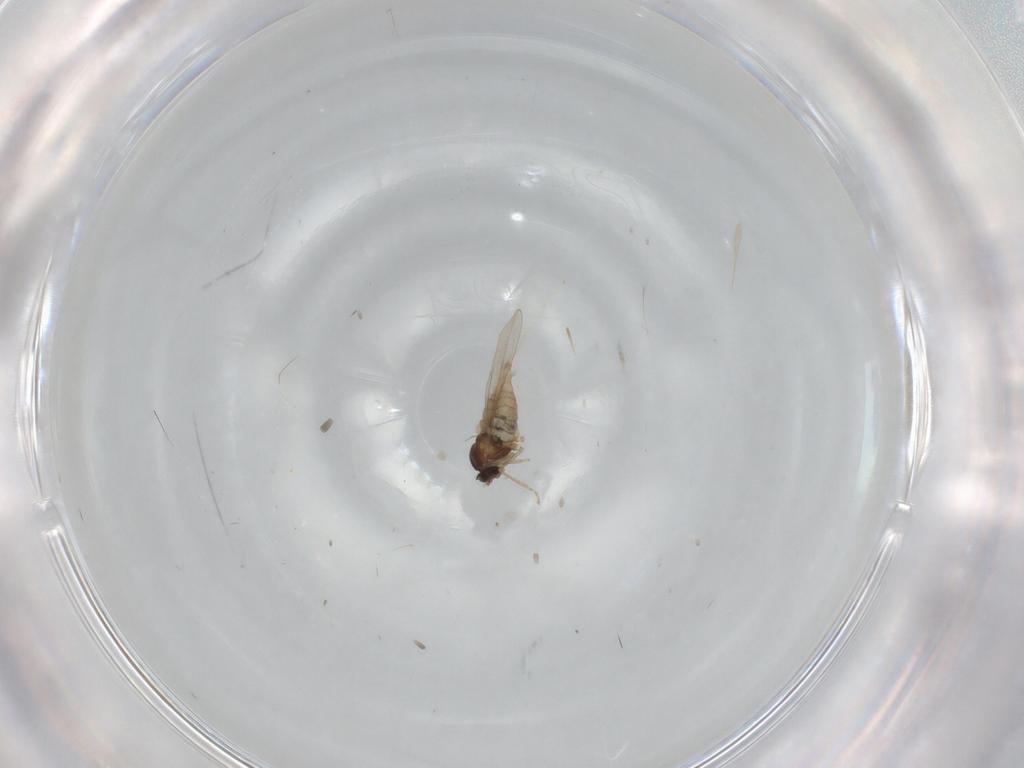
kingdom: Animalia
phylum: Arthropoda
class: Insecta
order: Diptera
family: Cecidomyiidae
